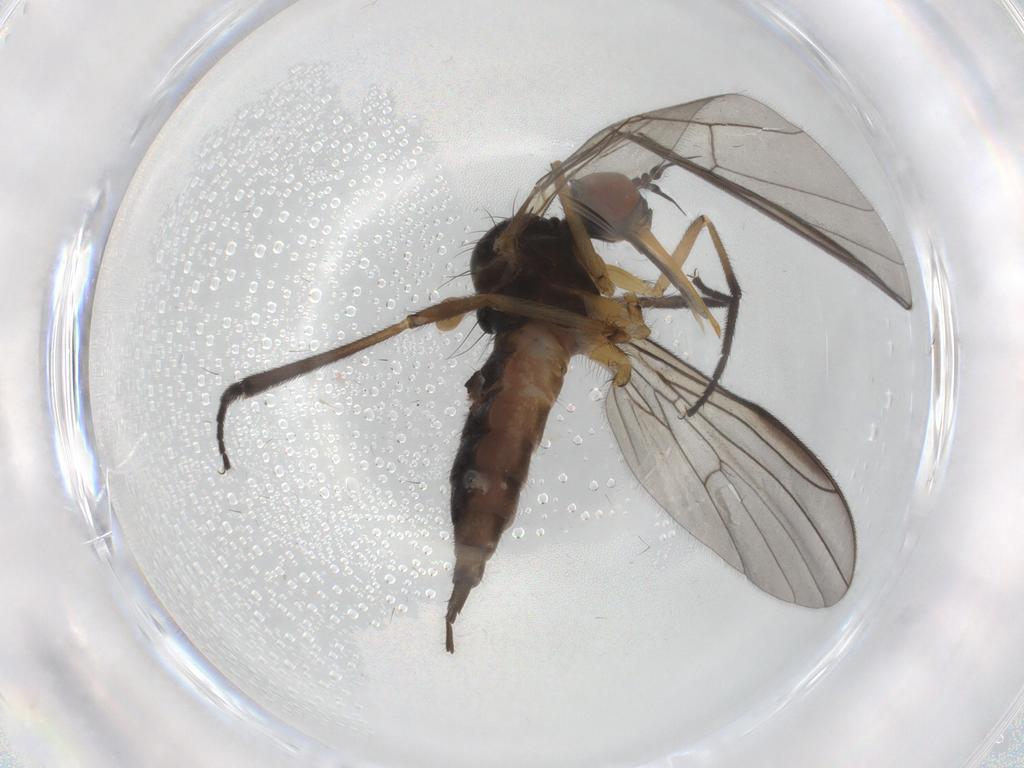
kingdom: Animalia
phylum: Arthropoda
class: Insecta
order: Diptera
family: Empididae
